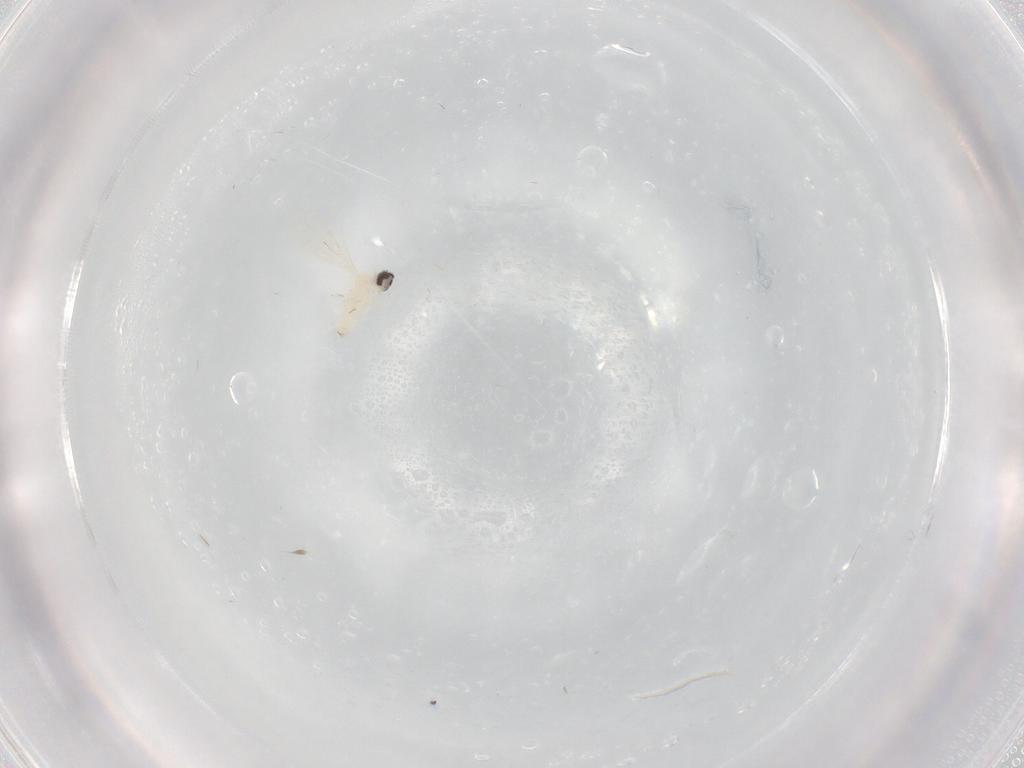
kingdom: Animalia
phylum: Arthropoda
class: Insecta
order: Diptera
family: Cecidomyiidae
